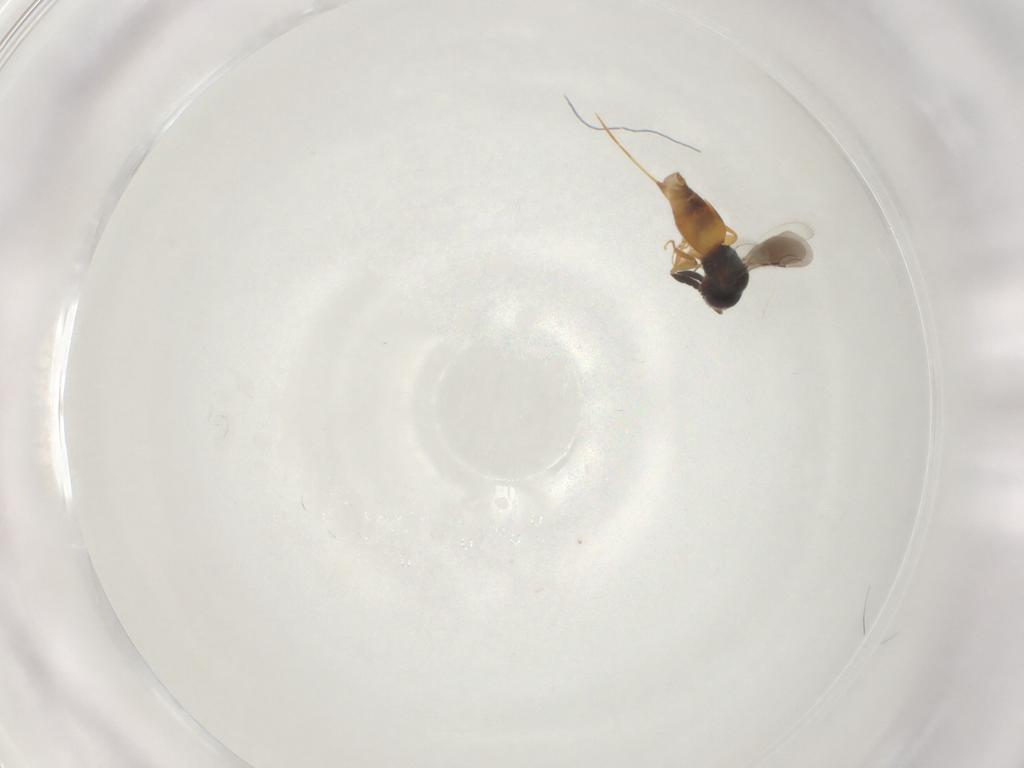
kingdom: Animalia
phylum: Arthropoda
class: Insecta
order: Hymenoptera
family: Ceraphronidae
